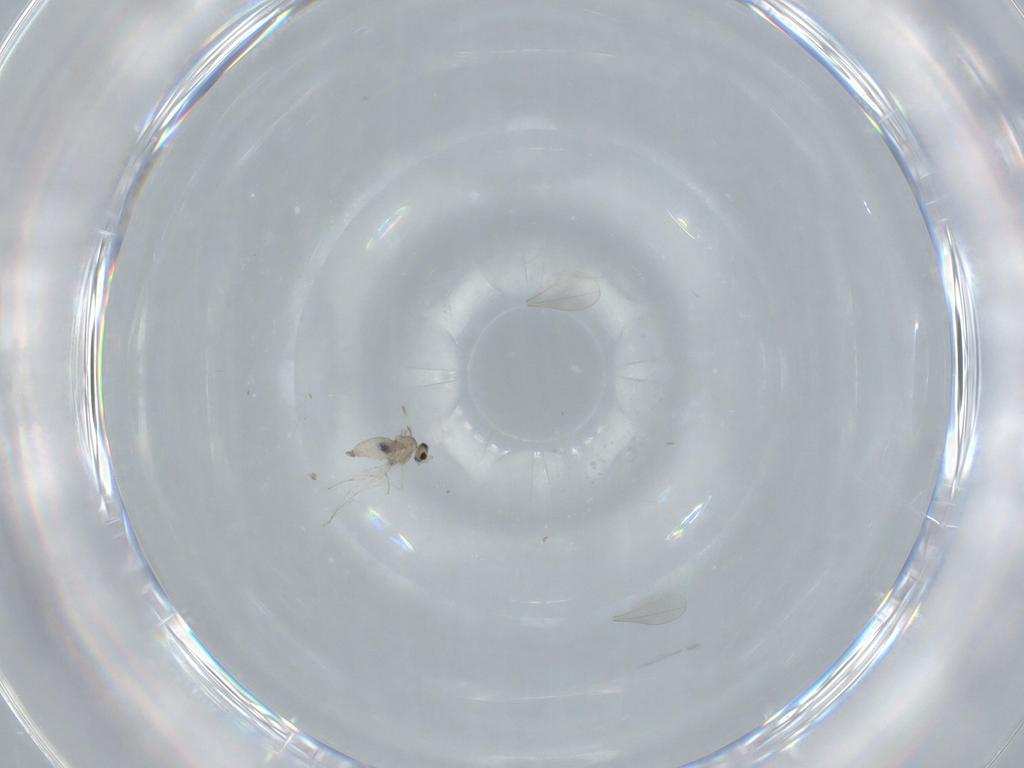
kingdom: Animalia
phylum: Arthropoda
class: Insecta
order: Diptera
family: Cecidomyiidae
